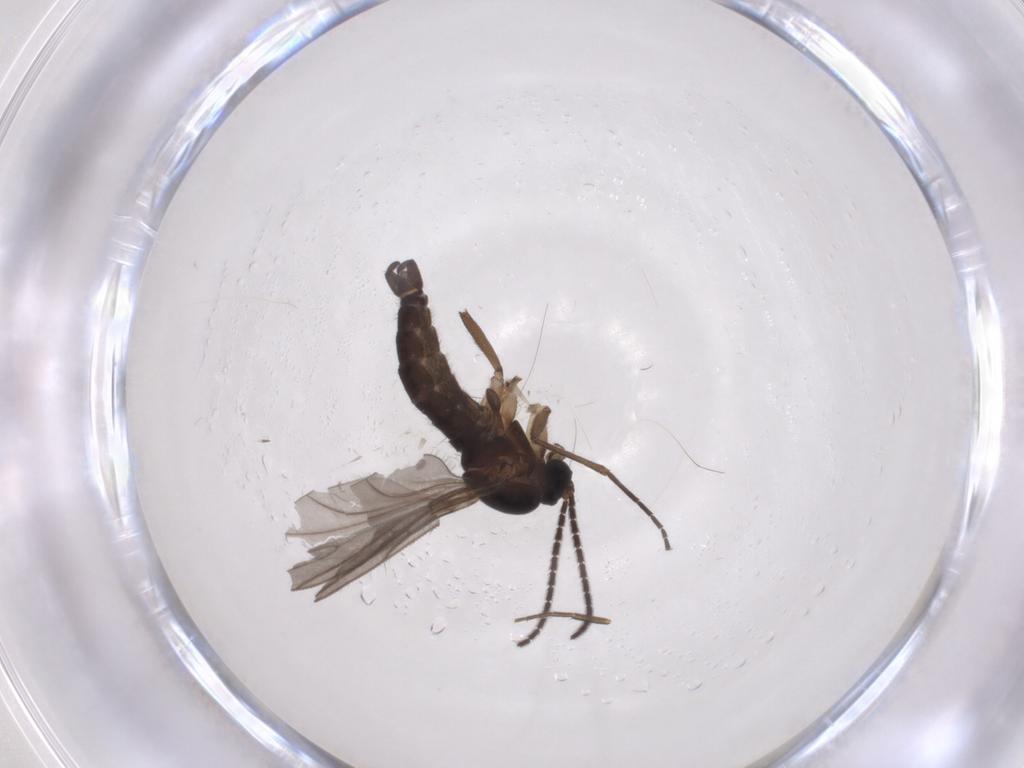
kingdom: Animalia
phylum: Arthropoda
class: Insecta
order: Diptera
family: Sciaridae
